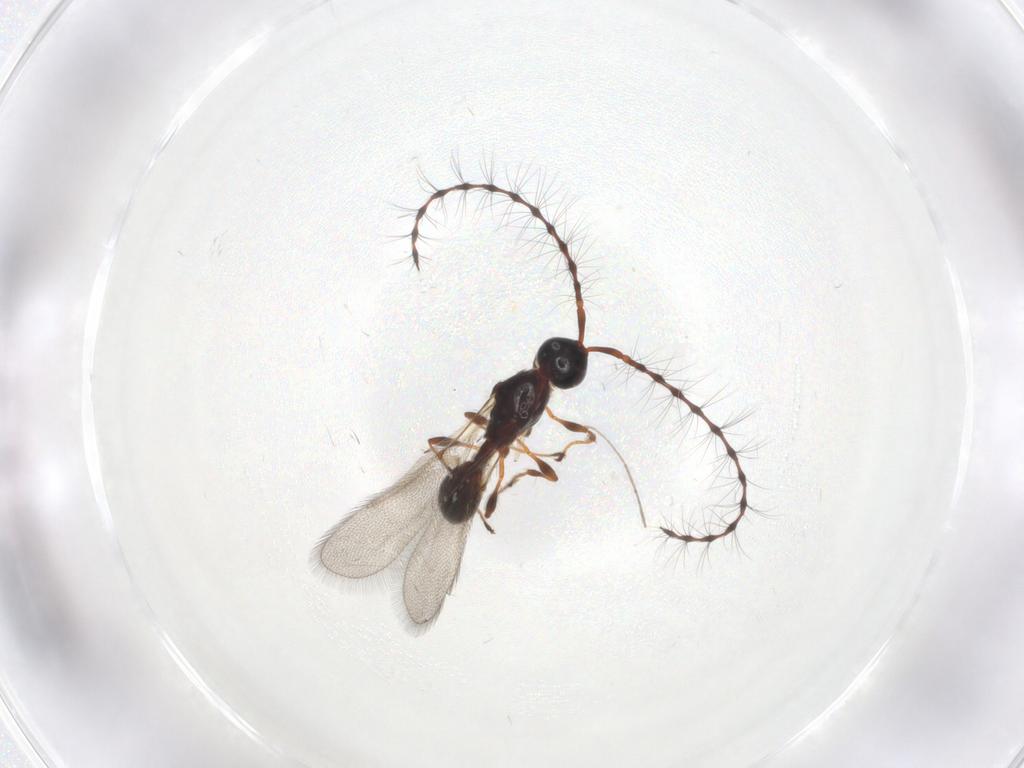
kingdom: Animalia
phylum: Arthropoda
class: Insecta
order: Hymenoptera
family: Diapriidae
